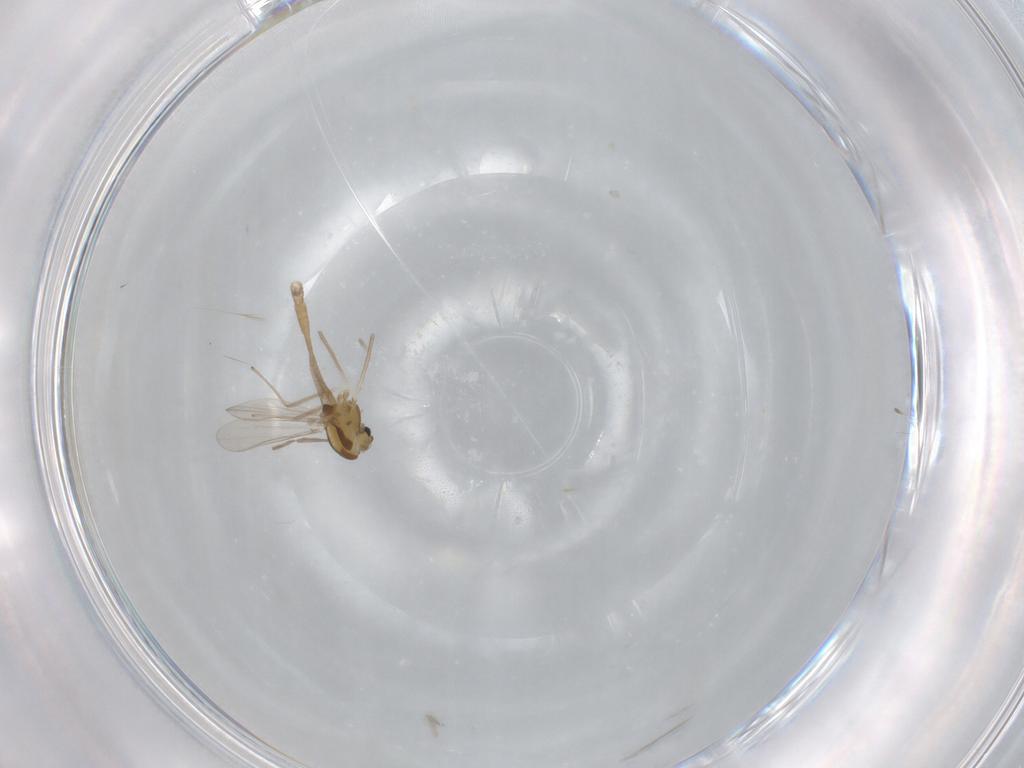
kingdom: Animalia
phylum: Arthropoda
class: Insecta
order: Diptera
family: Chironomidae
